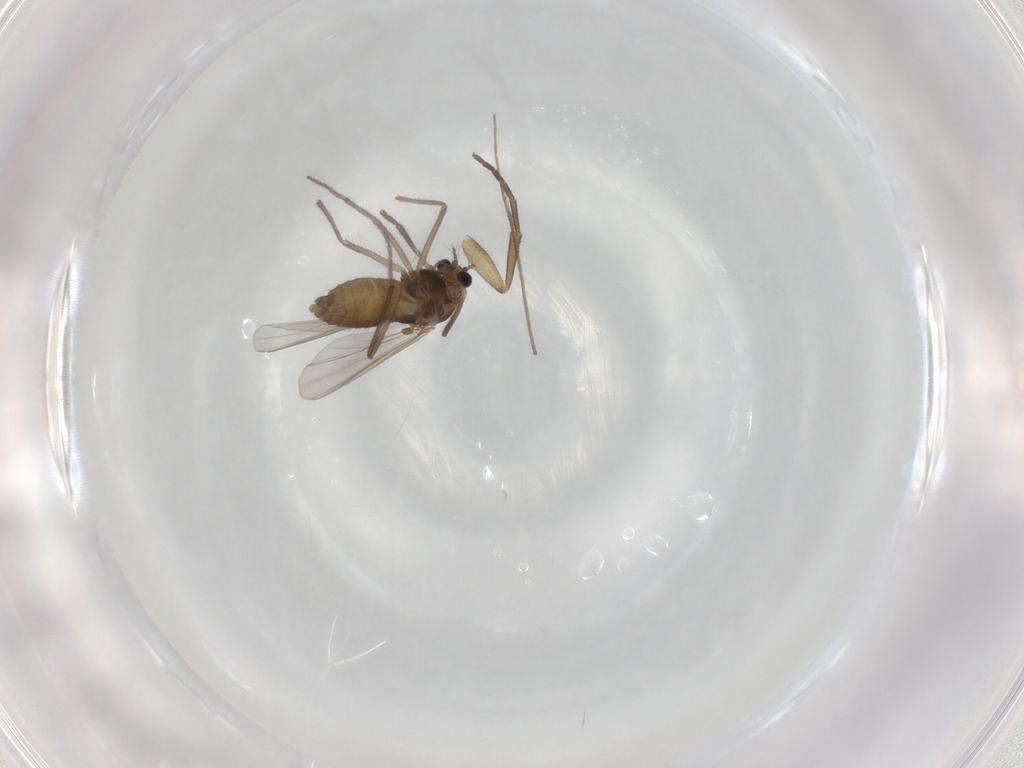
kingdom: Animalia
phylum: Arthropoda
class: Insecta
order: Diptera
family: Chironomidae
